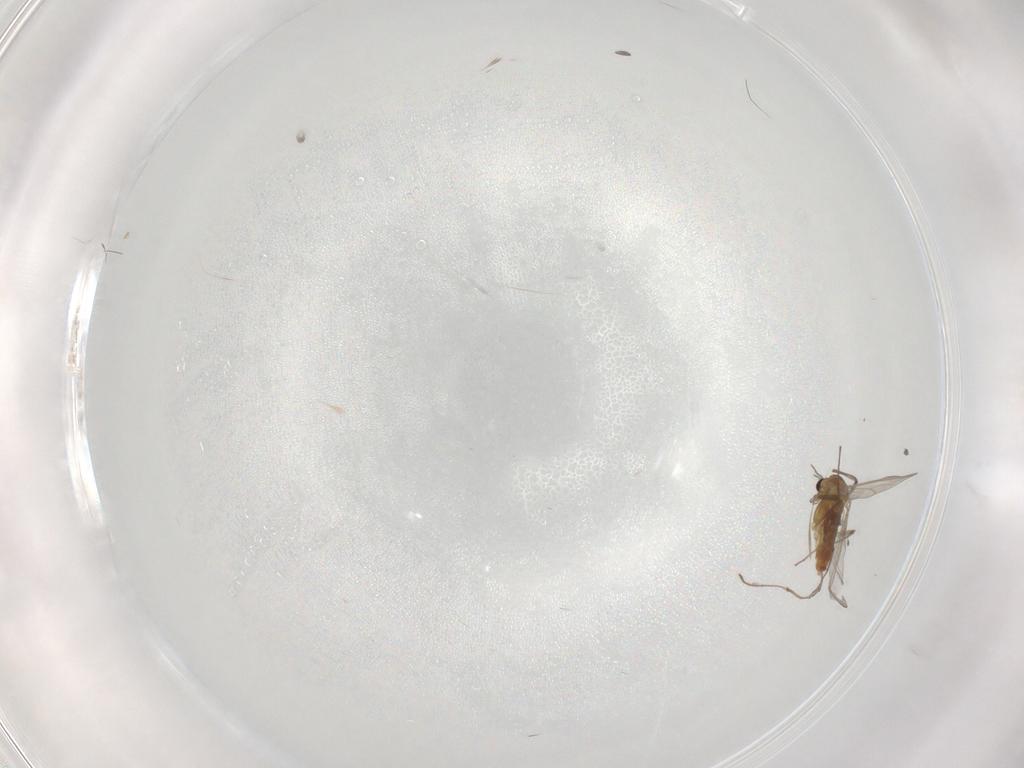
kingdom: Animalia
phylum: Arthropoda
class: Insecta
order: Diptera
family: Chironomidae
